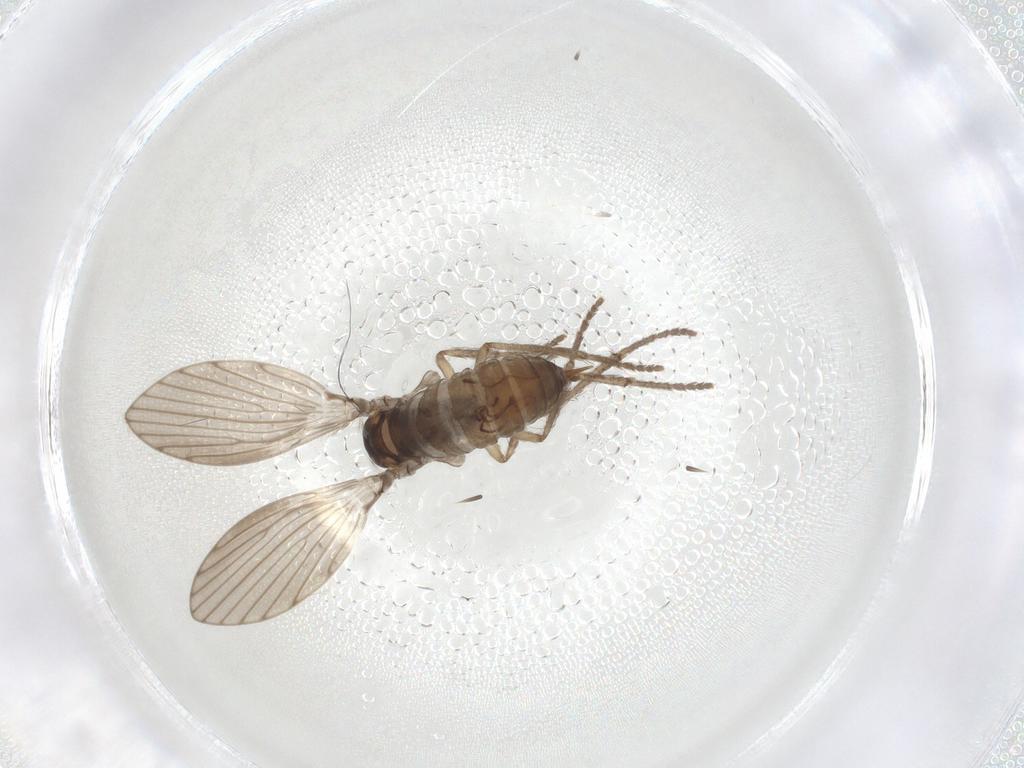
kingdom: Animalia
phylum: Arthropoda
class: Insecta
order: Diptera
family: Psychodidae
